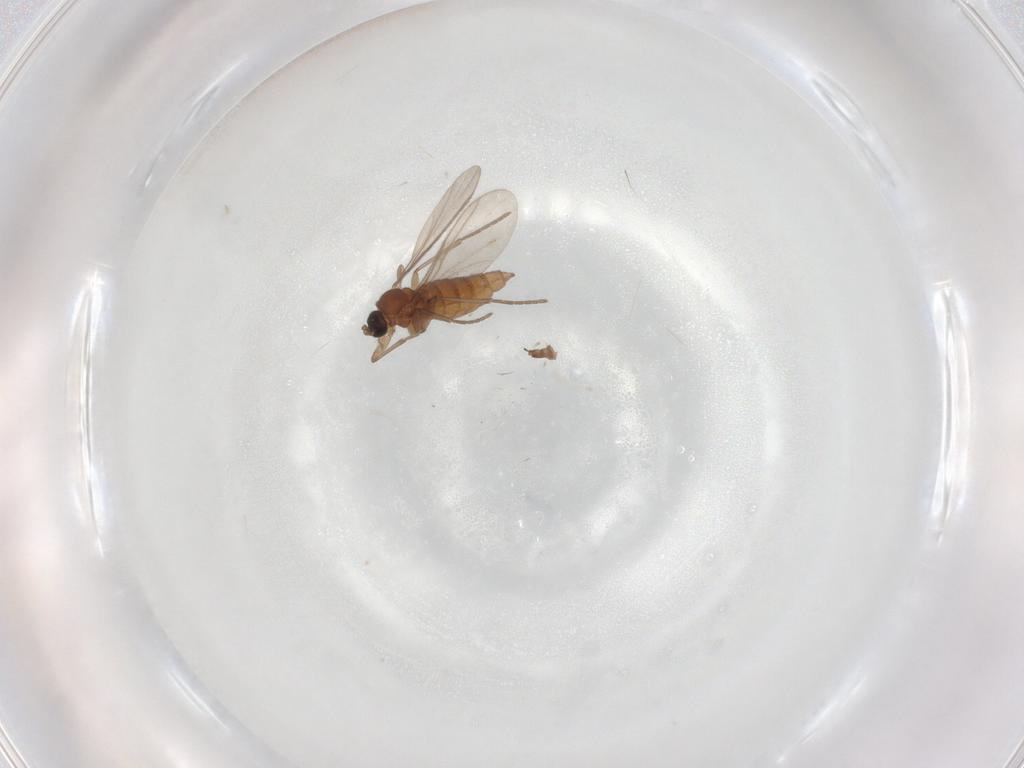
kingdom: Animalia
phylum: Arthropoda
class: Insecta
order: Diptera
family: Cecidomyiidae
